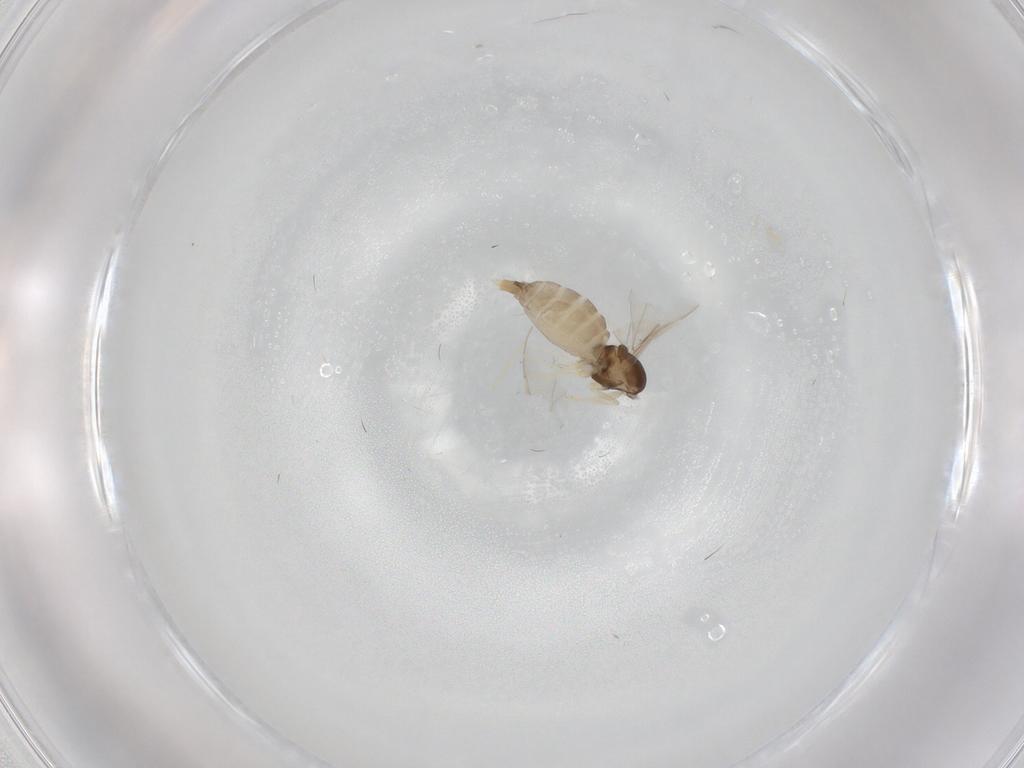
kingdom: Animalia
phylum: Arthropoda
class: Insecta
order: Diptera
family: Cecidomyiidae
